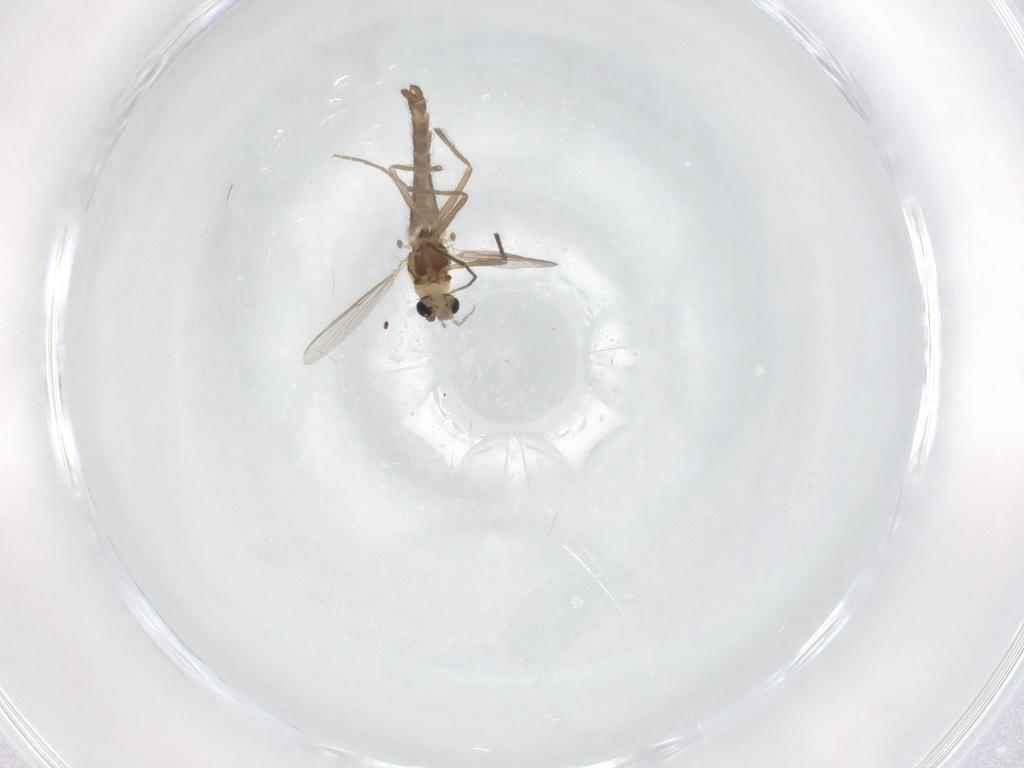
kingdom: Animalia
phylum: Arthropoda
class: Insecta
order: Diptera
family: Chironomidae
